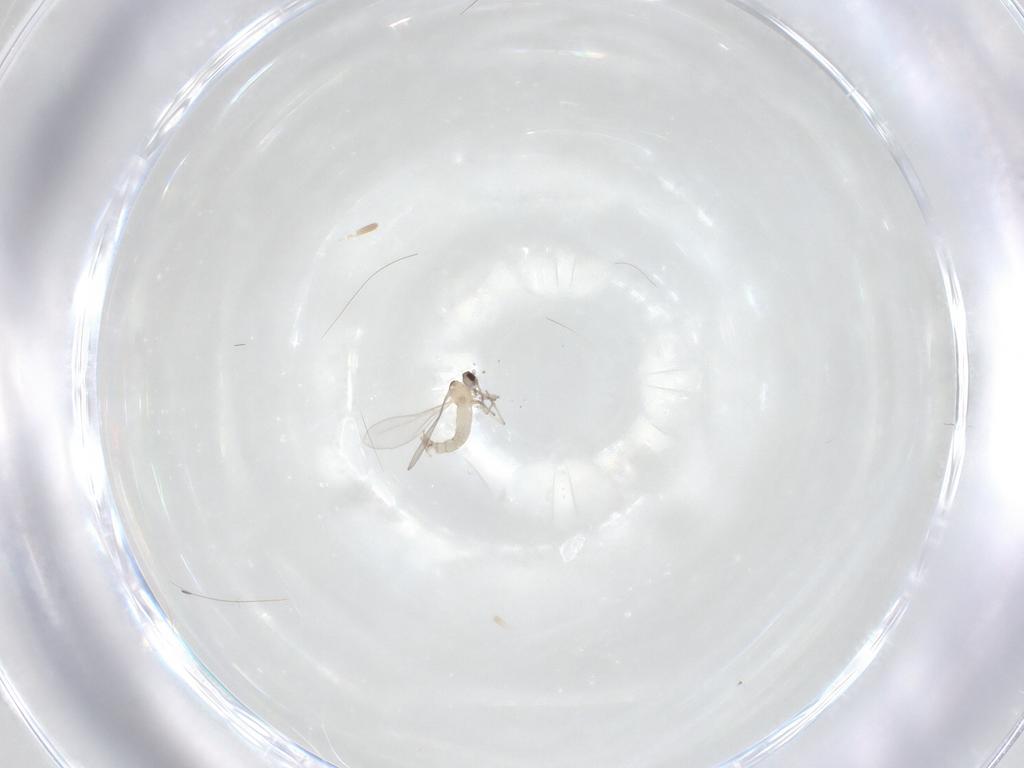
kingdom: Animalia
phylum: Arthropoda
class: Insecta
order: Diptera
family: Cecidomyiidae
